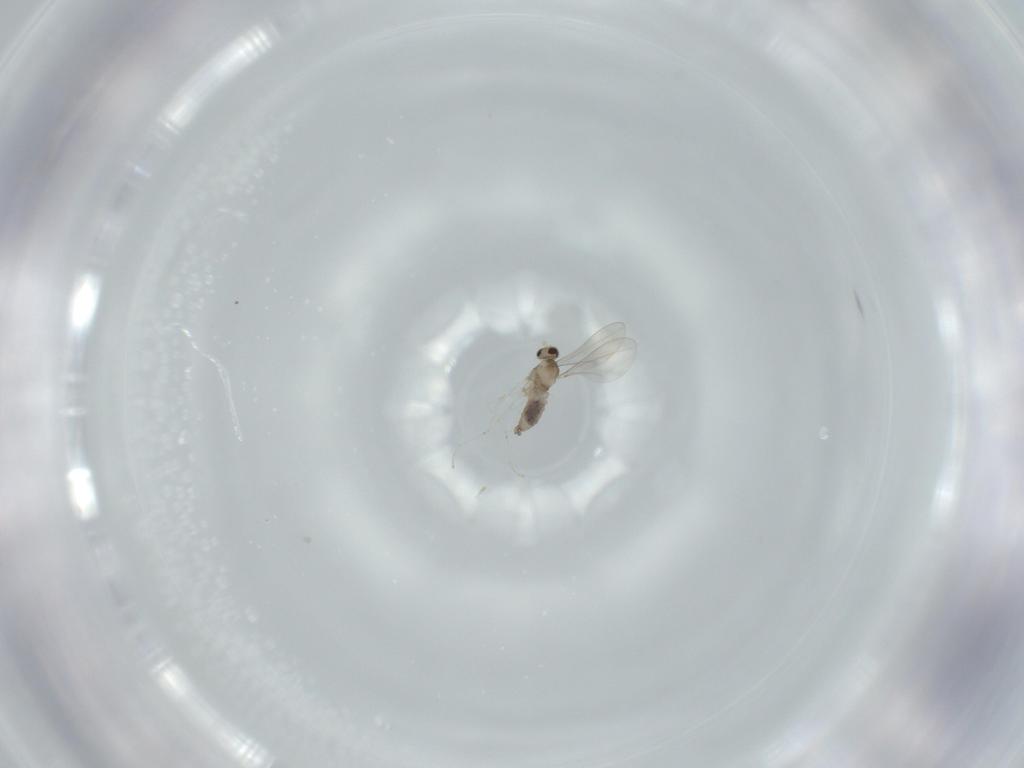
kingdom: Animalia
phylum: Arthropoda
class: Insecta
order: Diptera
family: Cecidomyiidae
